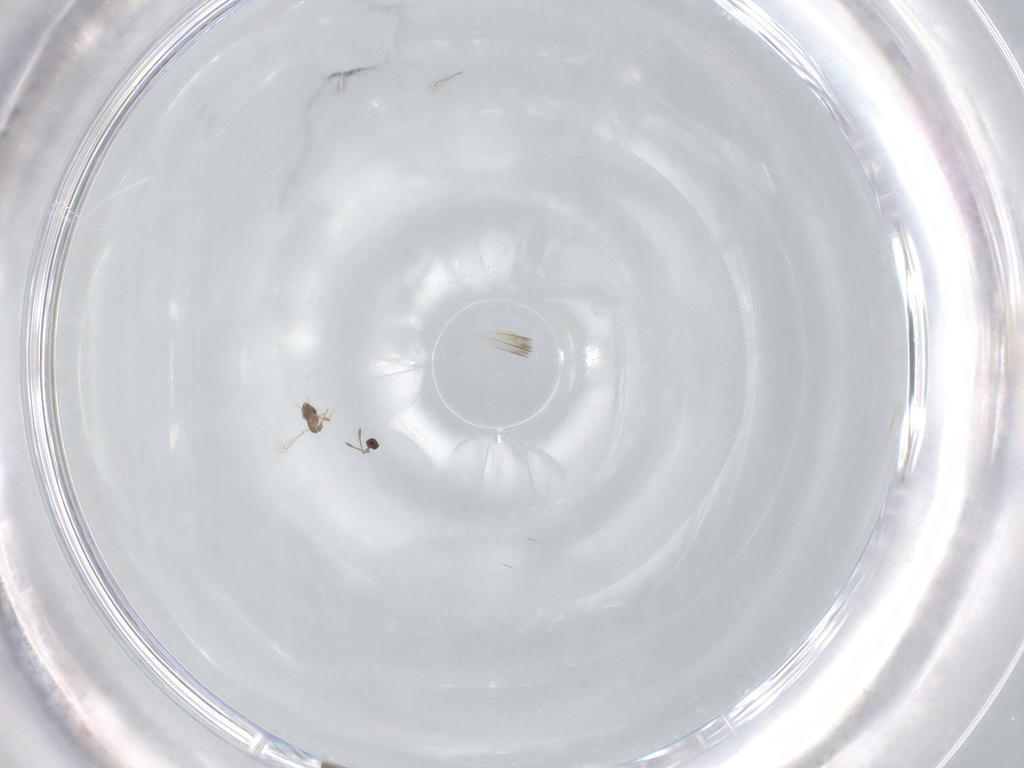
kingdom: Animalia
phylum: Arthropoda
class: Insecta
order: Hymenoptera
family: Mymaridae
